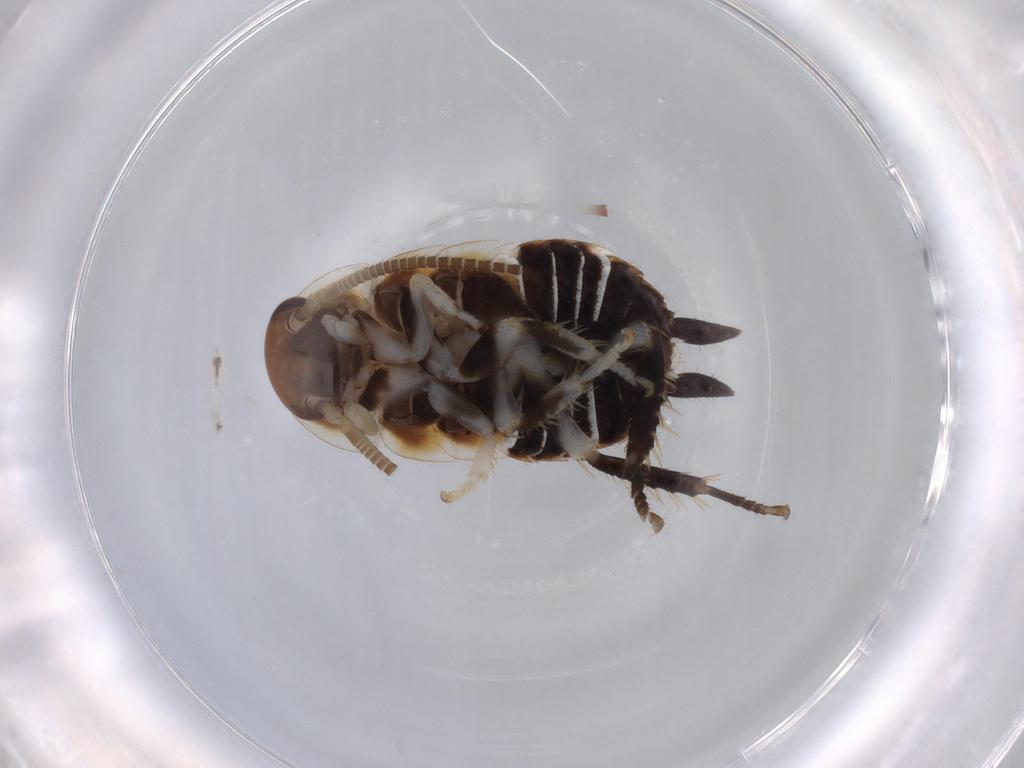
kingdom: Animalia
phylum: Arthropoda
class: Insecta
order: Blattodea
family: Ectobiidae
